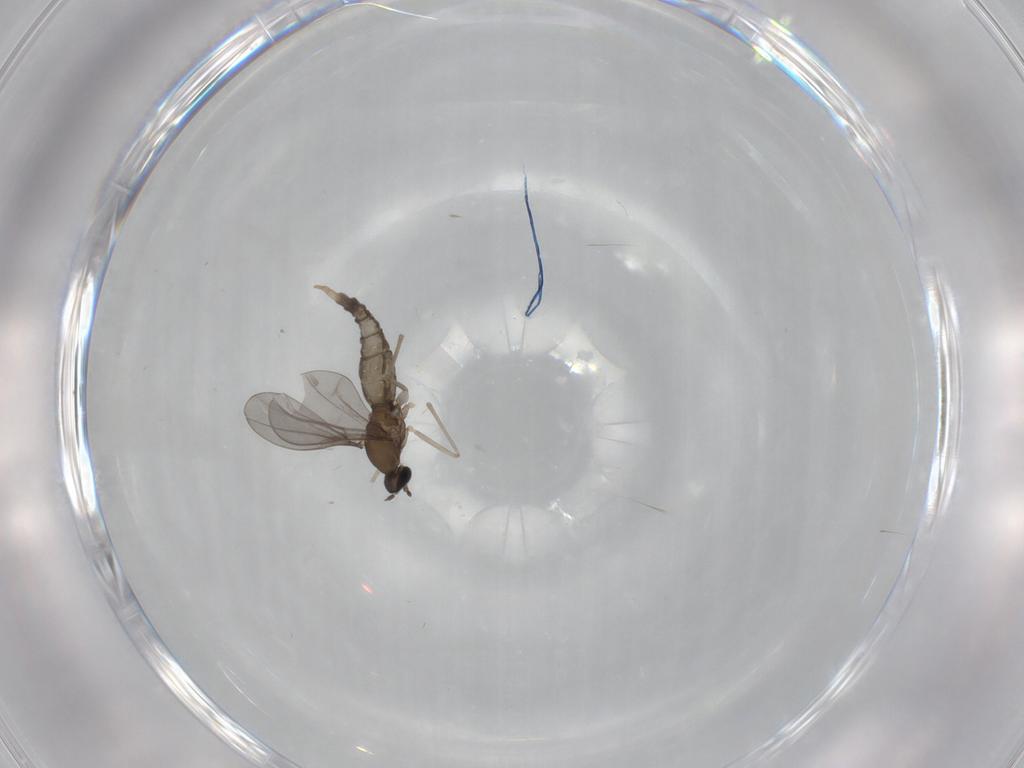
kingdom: Animalia
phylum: Arthropoda
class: Insecta
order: Diptera
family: Cecidomyiidae
